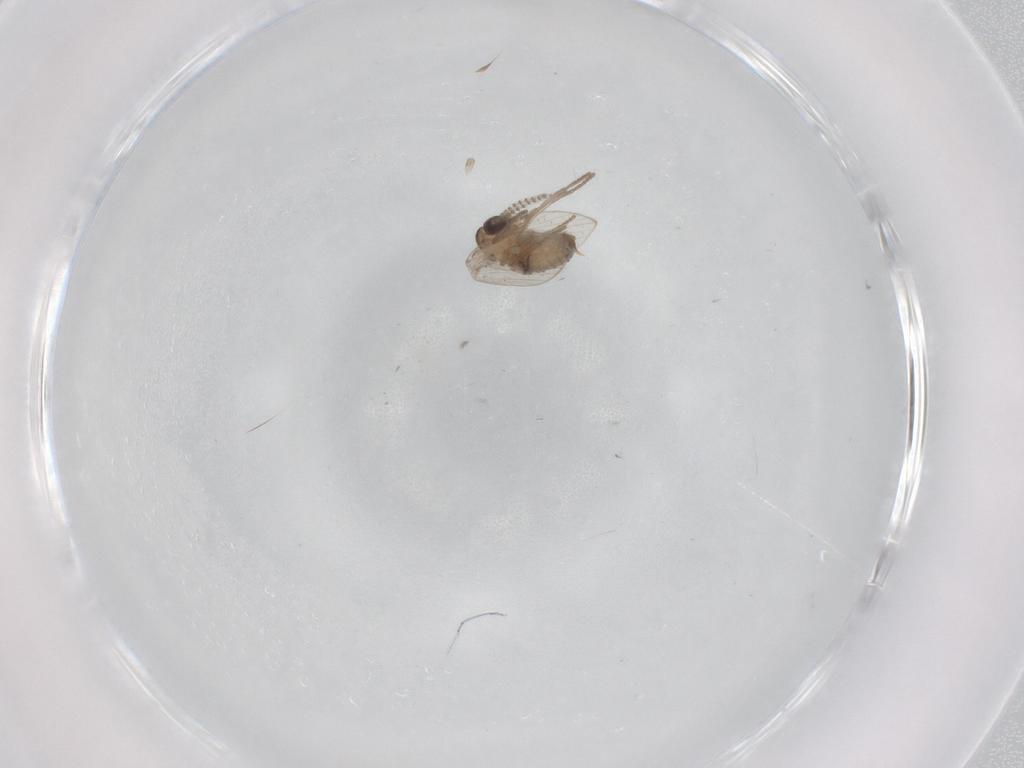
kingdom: Animalia
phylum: Arthropoda
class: Insecta
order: Diptera
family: Psychodidae
